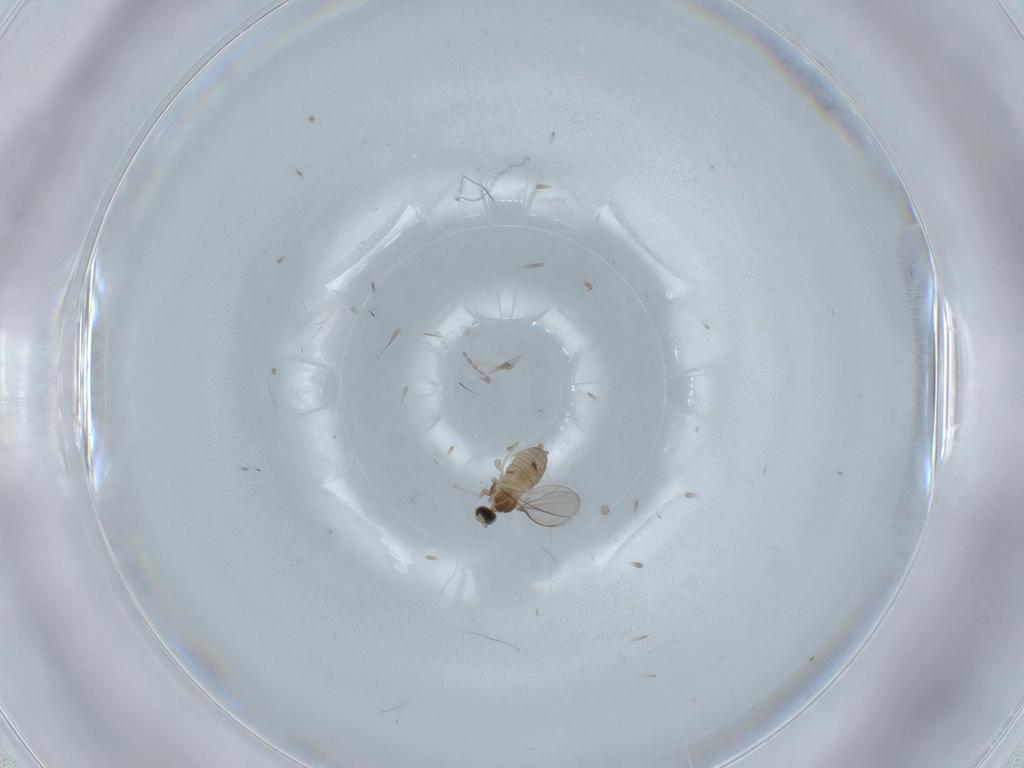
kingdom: Animalia
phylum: Arthropoda
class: Insecta
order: Diptera
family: Cecidomyiidae
